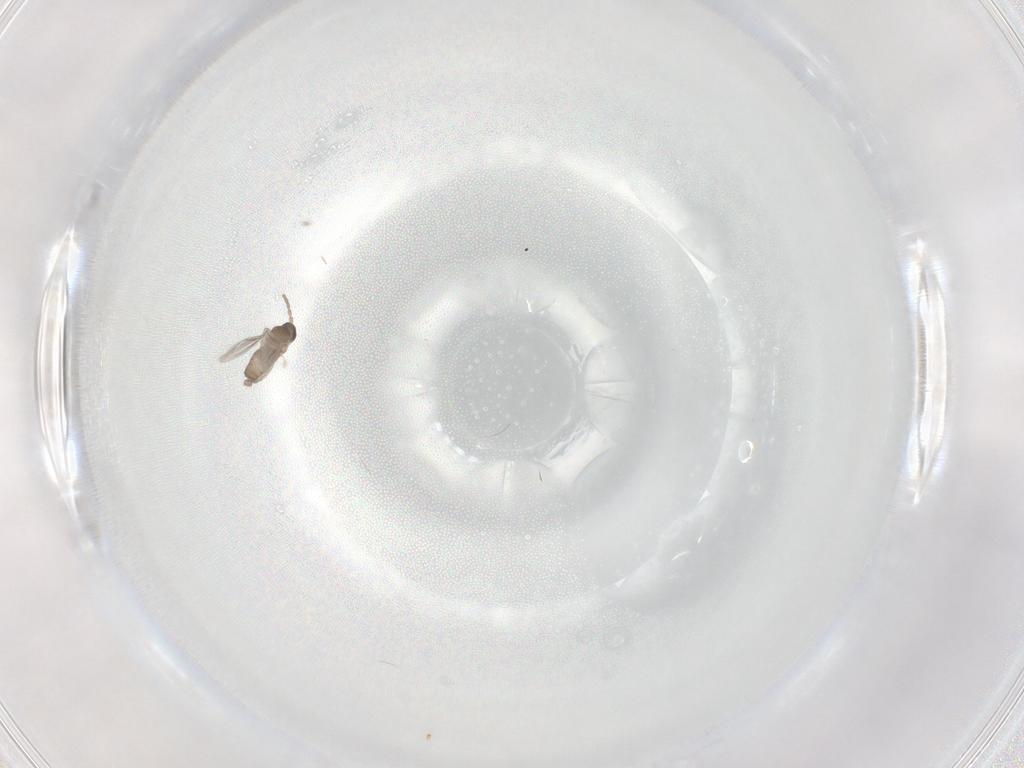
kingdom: Animalia
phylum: Arthropoda
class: Insecta
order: Diptera
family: Ephydridae
